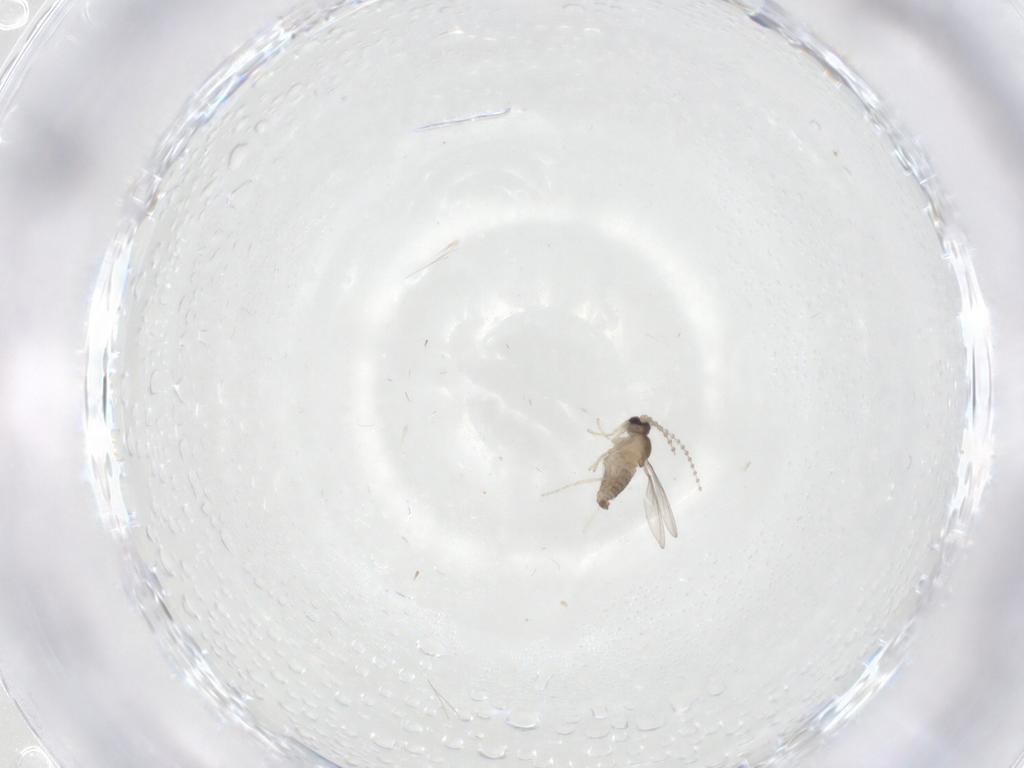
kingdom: Animalia
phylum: Arthropoda
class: Insecta
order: Diptera
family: Cecidomyiidae
